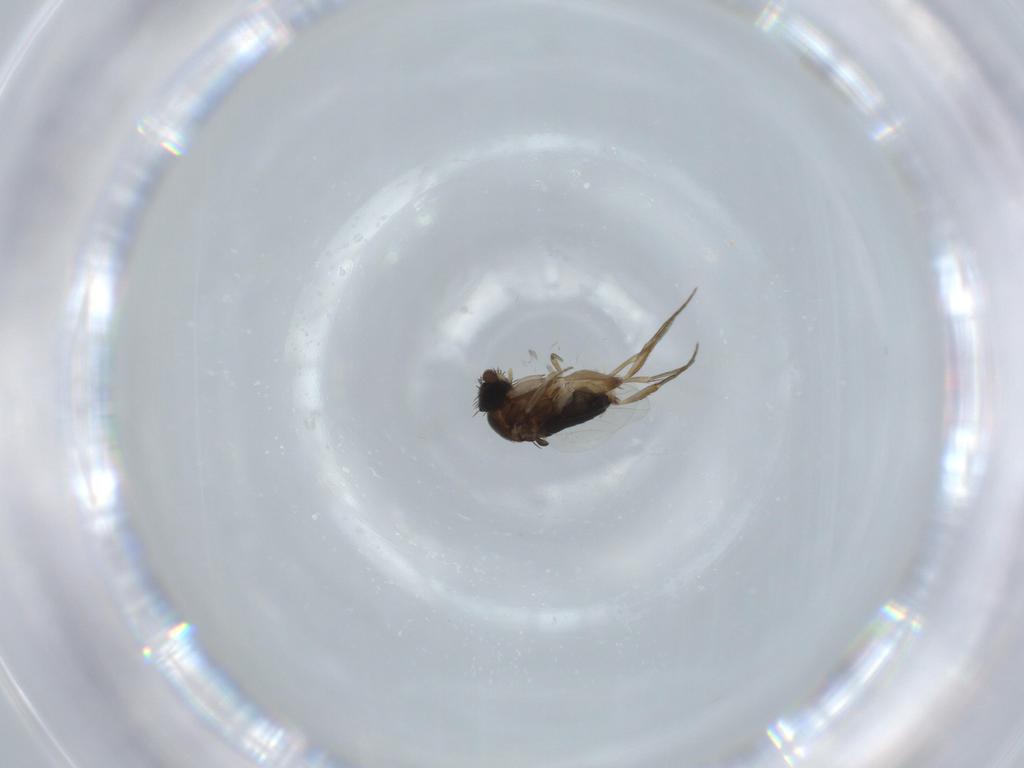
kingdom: Animalia
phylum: Arthropoda
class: Insecta
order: Diptera
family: Phoridae
